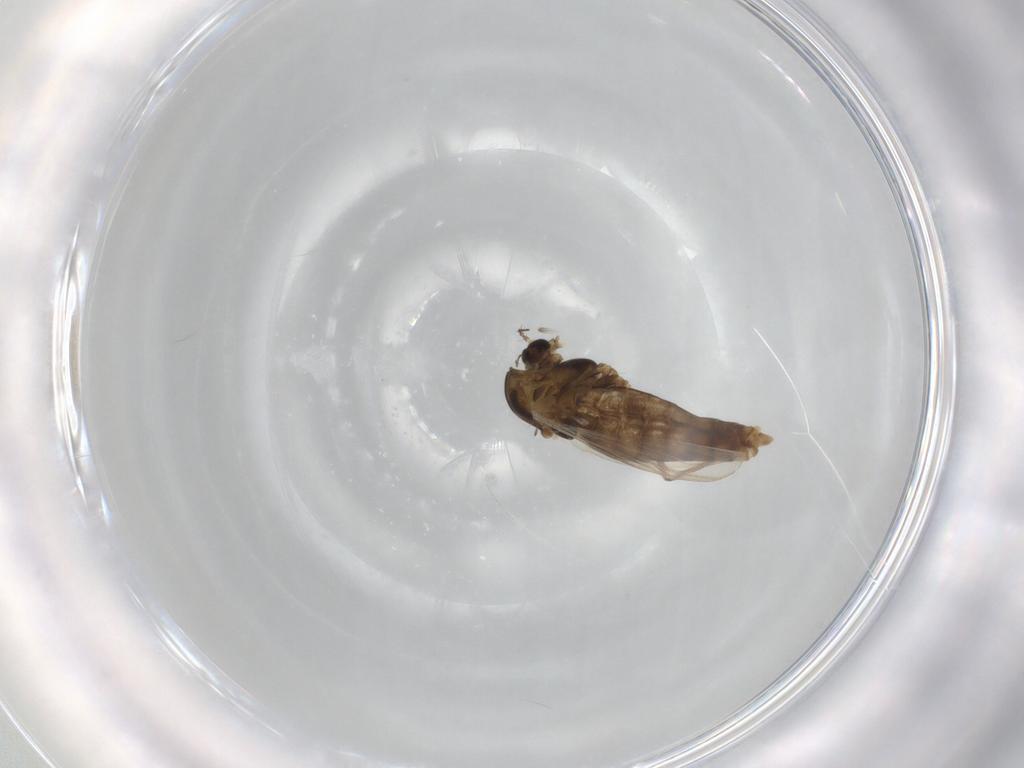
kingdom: Animalia
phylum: Arthropoda
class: Insecta
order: Diptera
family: Chironomidae
